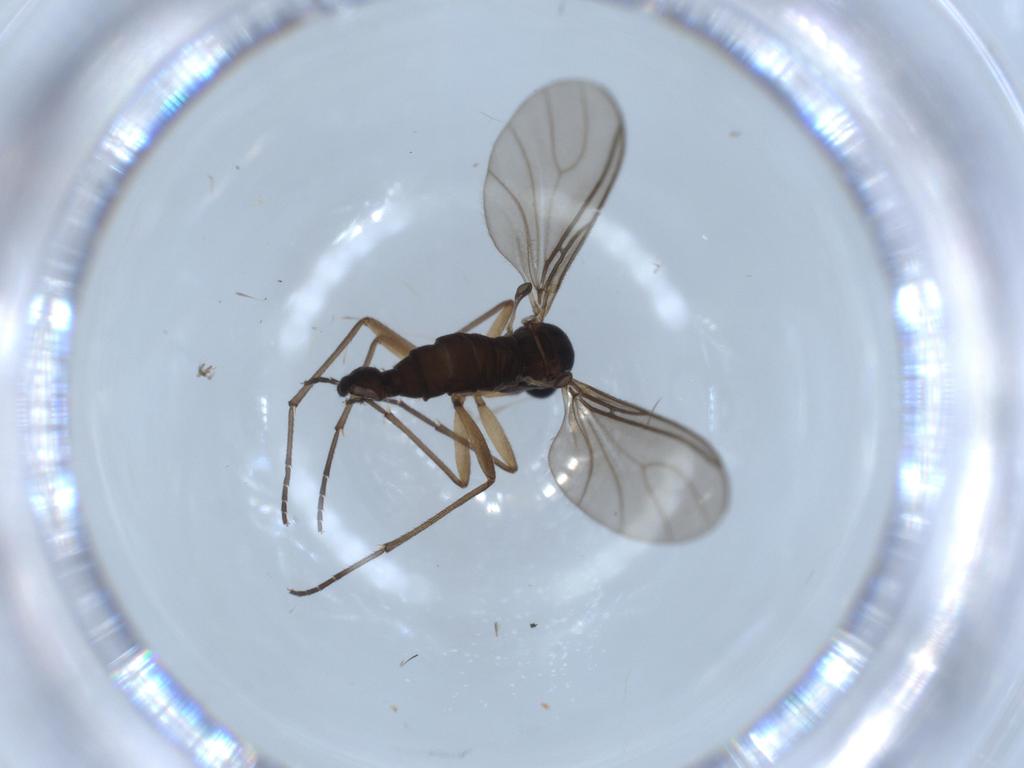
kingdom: Animalia
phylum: Arthropoda
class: Insecta
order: Diptera
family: Sciaridae
